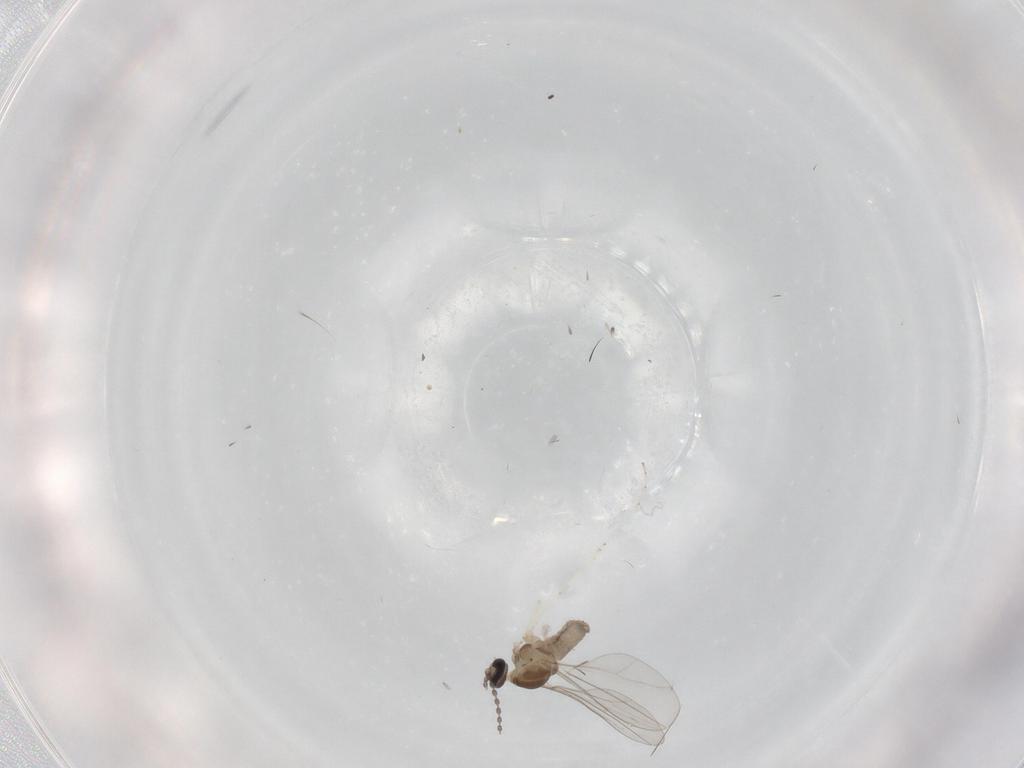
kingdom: Animalia
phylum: Arthropoda
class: Insecta
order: Diptera
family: Cecidomyiidae
